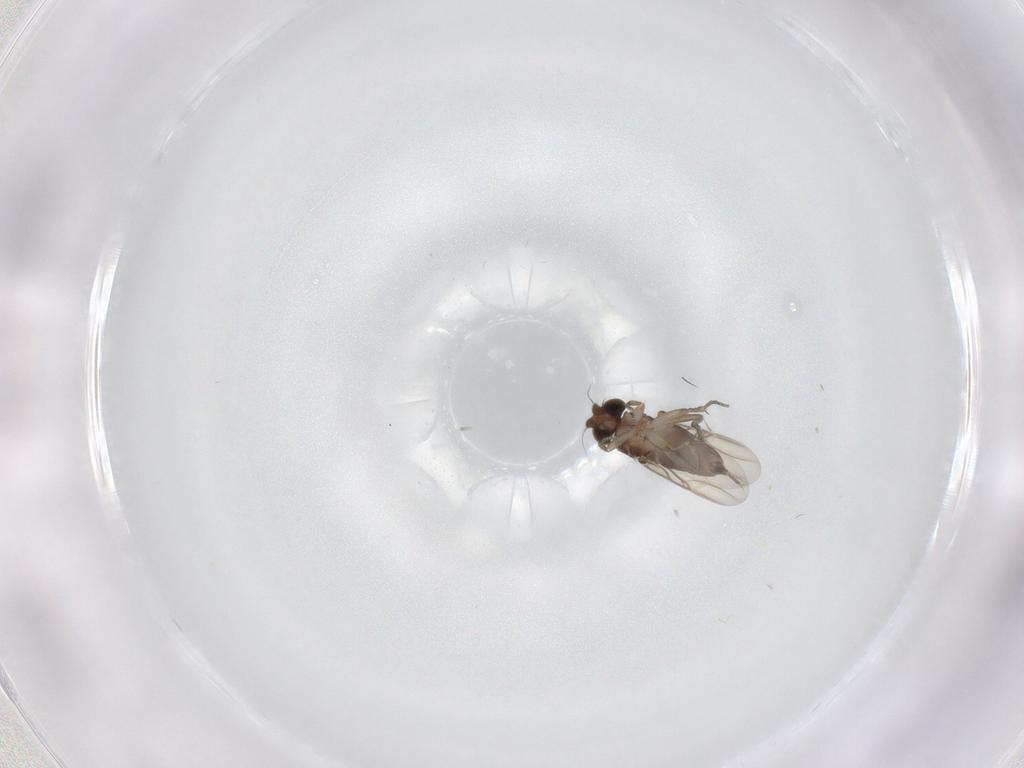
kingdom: Animalia
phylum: Arthropoda
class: Insecta
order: Diptera
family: Phoridae
